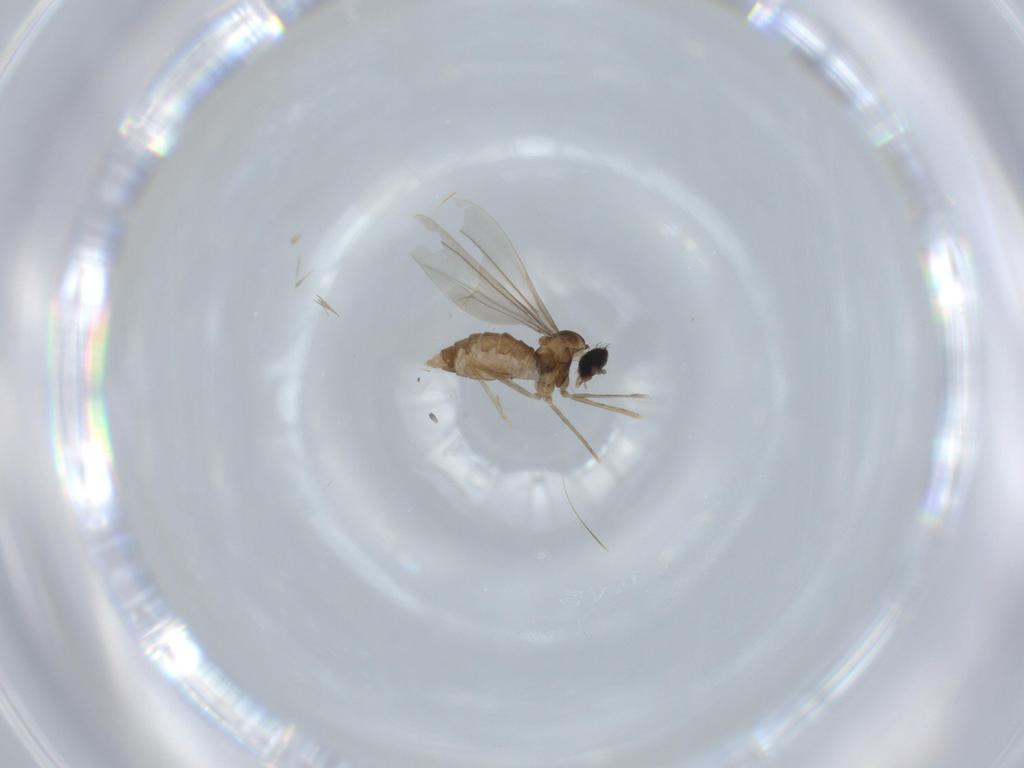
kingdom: Animalia
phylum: Arthropoda
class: Insecta
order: Diptera
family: Cecidomyiidae
